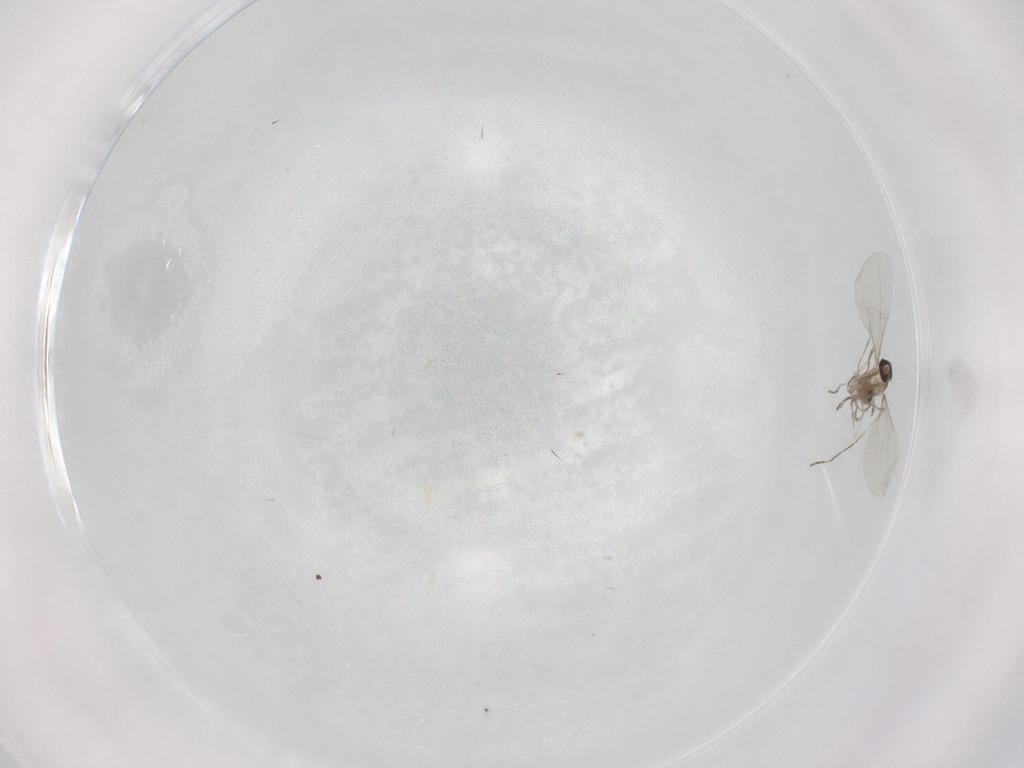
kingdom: Animalia
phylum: Arthropoda
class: Insecta
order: Diptera
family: Cecidomyiidae
